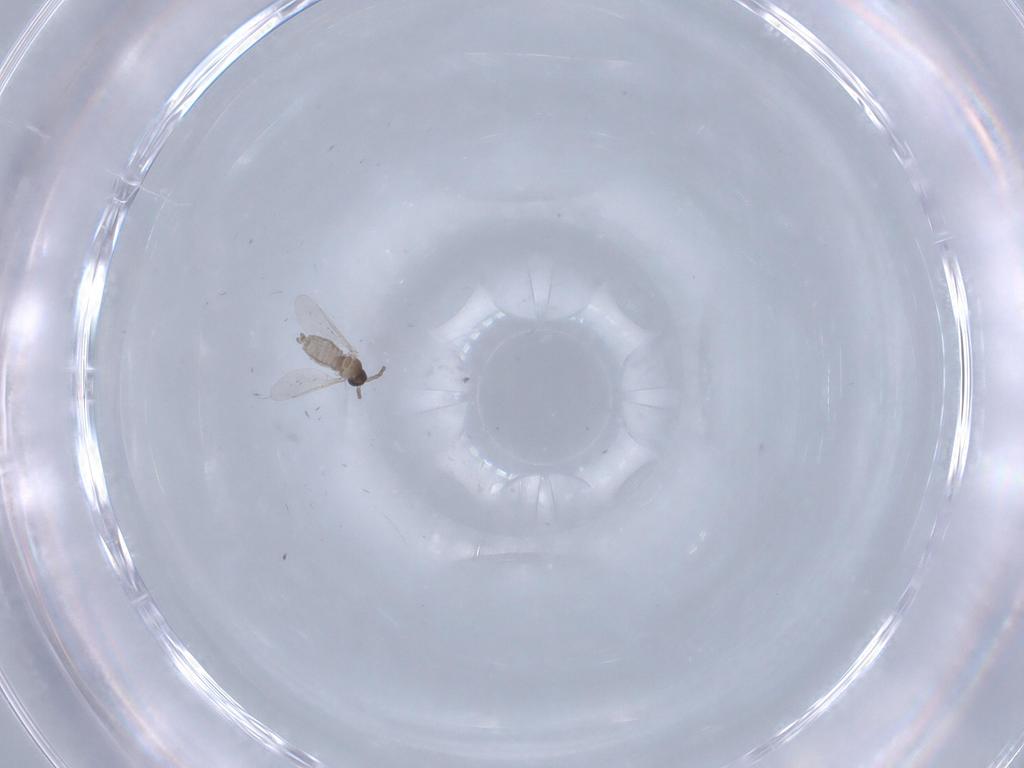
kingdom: Animalia
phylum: Arthropoda
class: Insecta
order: Diptera
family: Cecidomyiidae
